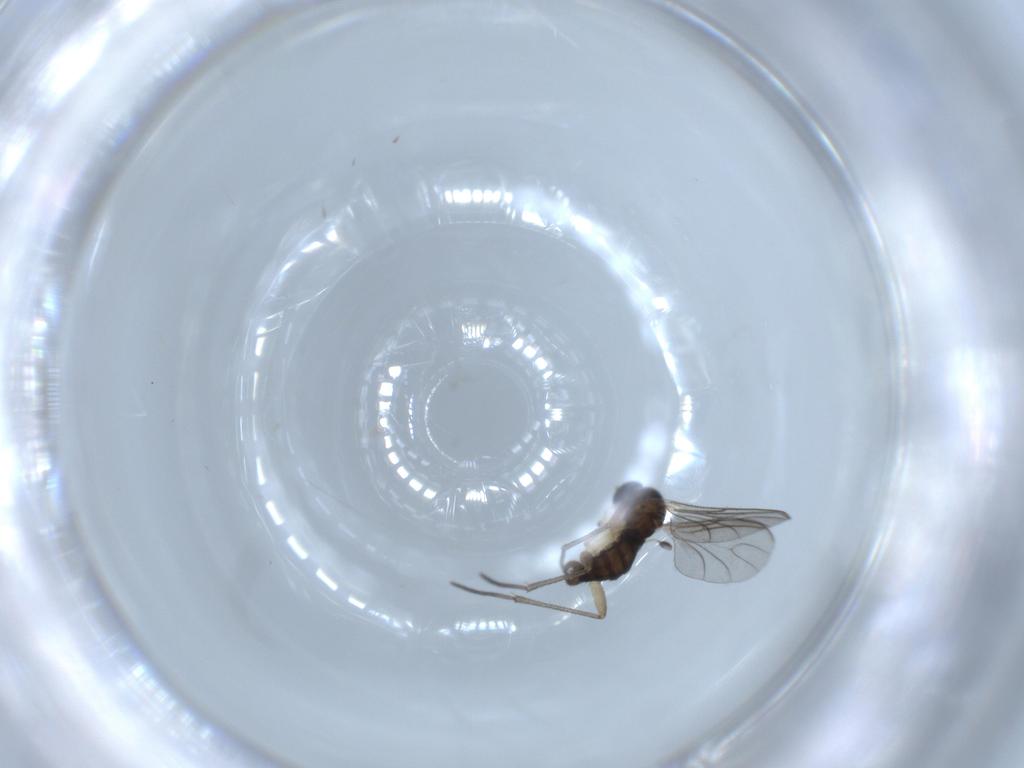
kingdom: Animalia
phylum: Arthropoda
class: Insecta
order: Diptera
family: Sciaridae
